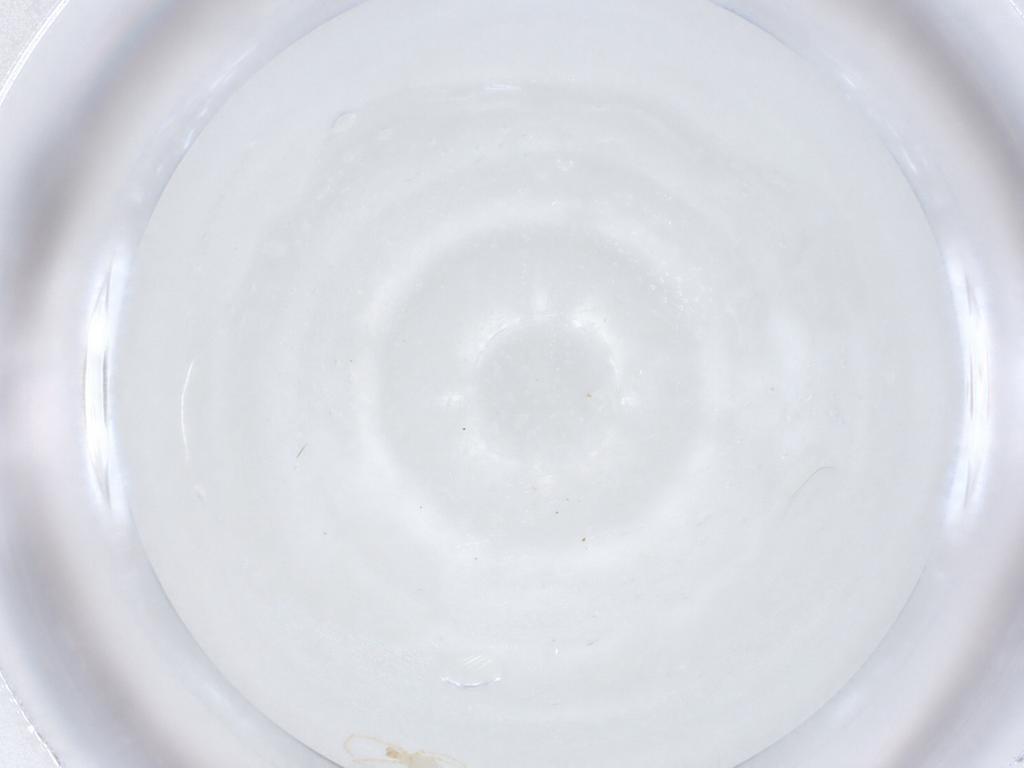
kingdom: Animalia
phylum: Arthropoda
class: Arachnida
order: Trombidiformes
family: Erythraeidae
